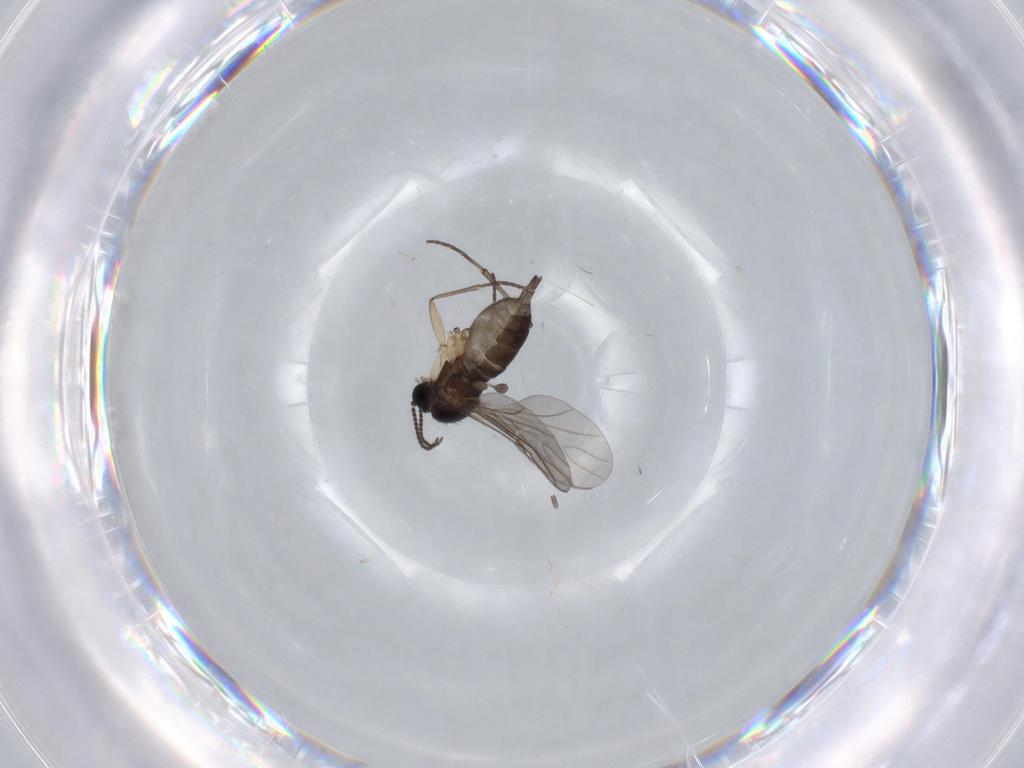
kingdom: Animalia
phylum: Arthropoda
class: Insecta
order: Diptera
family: Sciaridae
